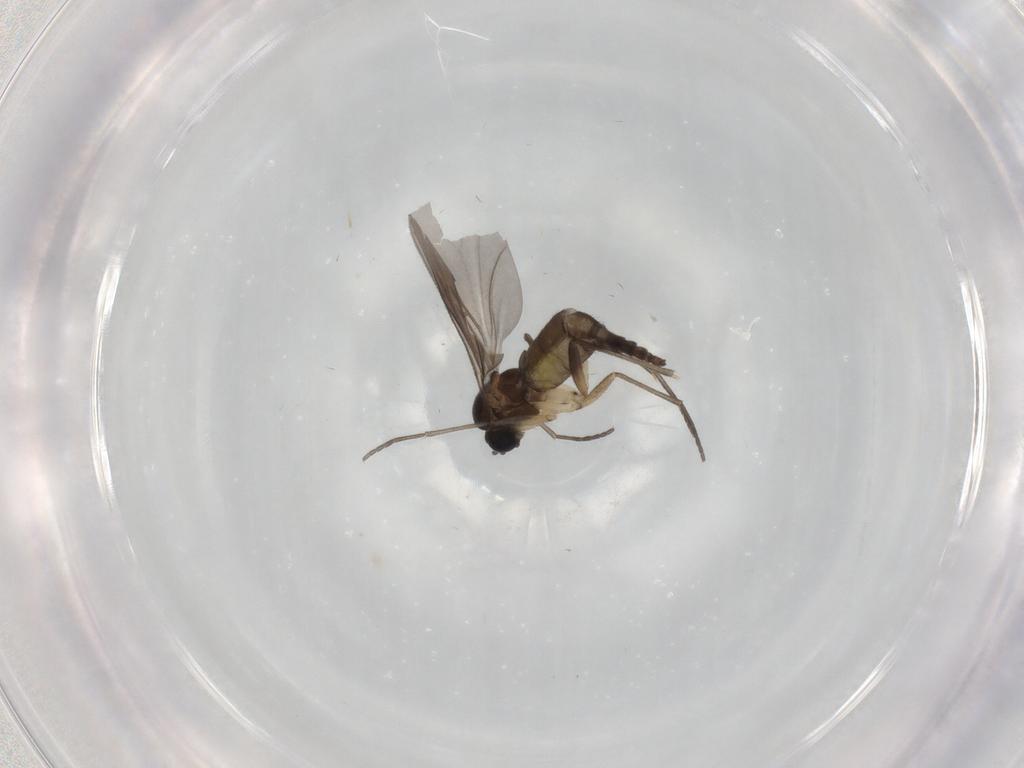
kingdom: Animalia
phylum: Arthropoda
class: Insecta
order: Diptera
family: Sciaridae
